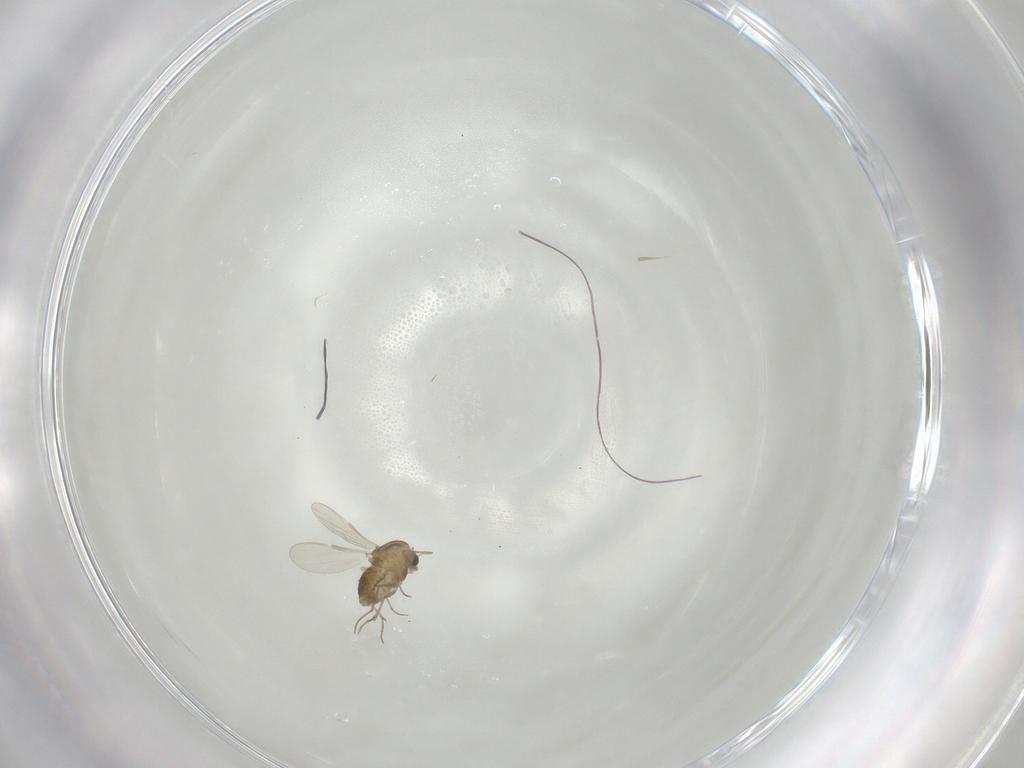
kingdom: Animalia
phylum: Arthropoda
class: Insecta
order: Diptera
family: Chironomidae
